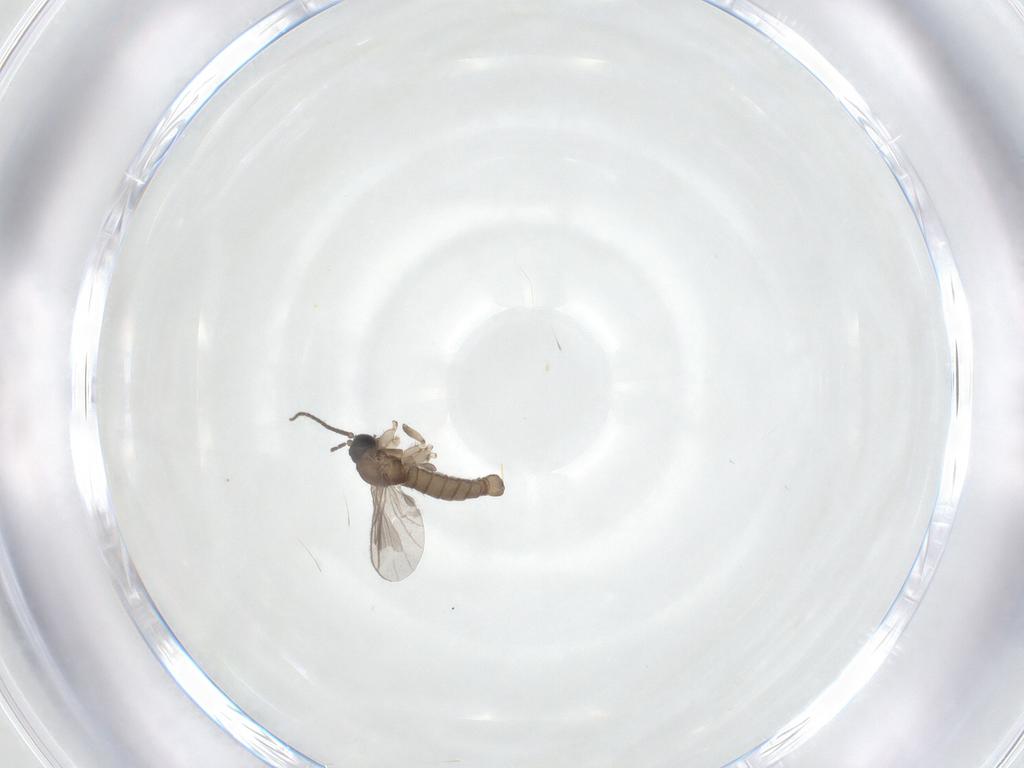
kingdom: Animalia
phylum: Arthropoda
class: Insecta
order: Diptera
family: Sciaridae
